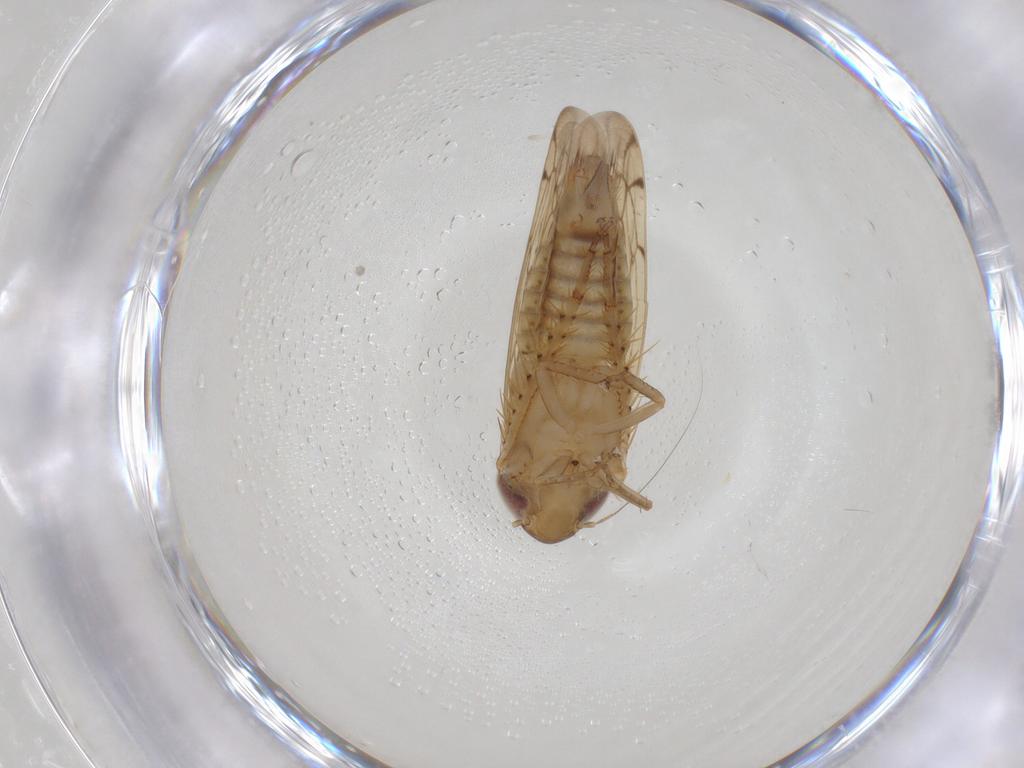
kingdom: Animalia
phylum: Arthropoda
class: Insecta
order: Hemiptera
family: Cicadellidae
